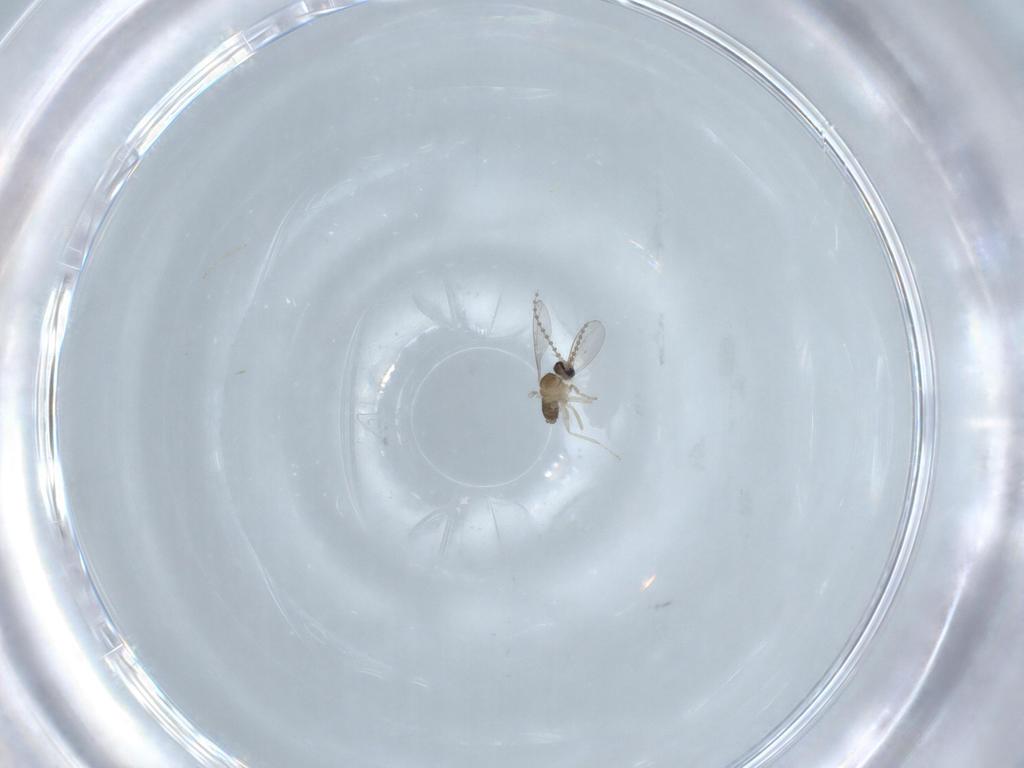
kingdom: Animalia
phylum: Arthropoda
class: Insecta
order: Diptera
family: Cecidomyiidae
